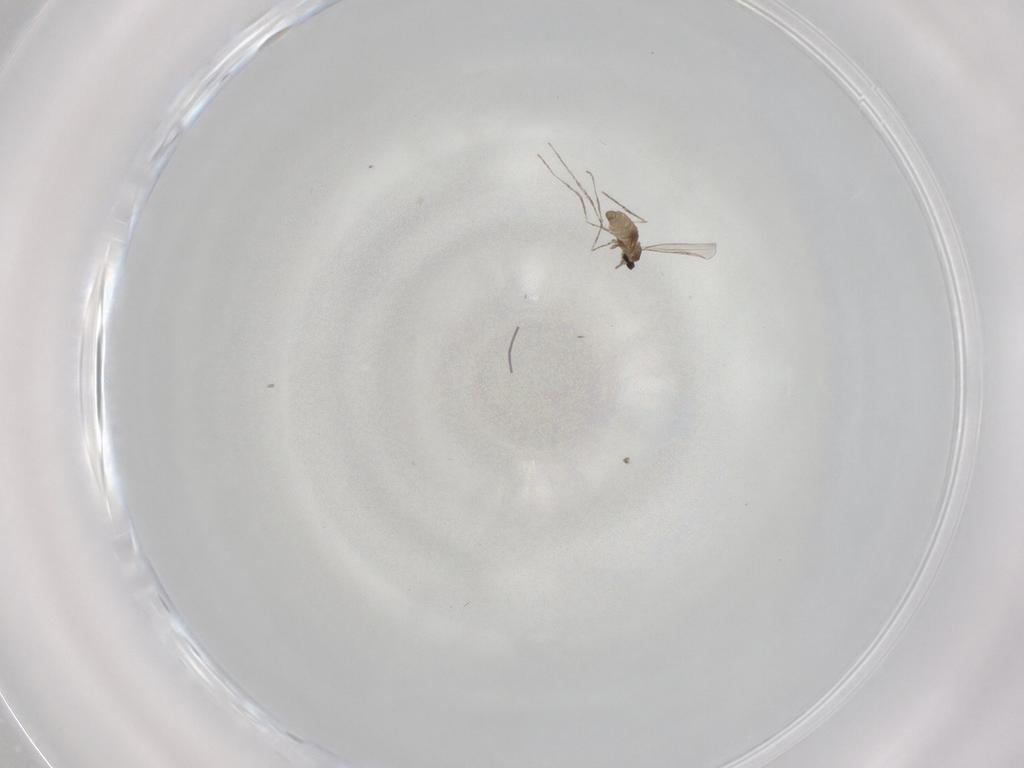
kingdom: Animalia
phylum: Arthropoda
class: Insecta
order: Diptera
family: Cecidomyiidae
